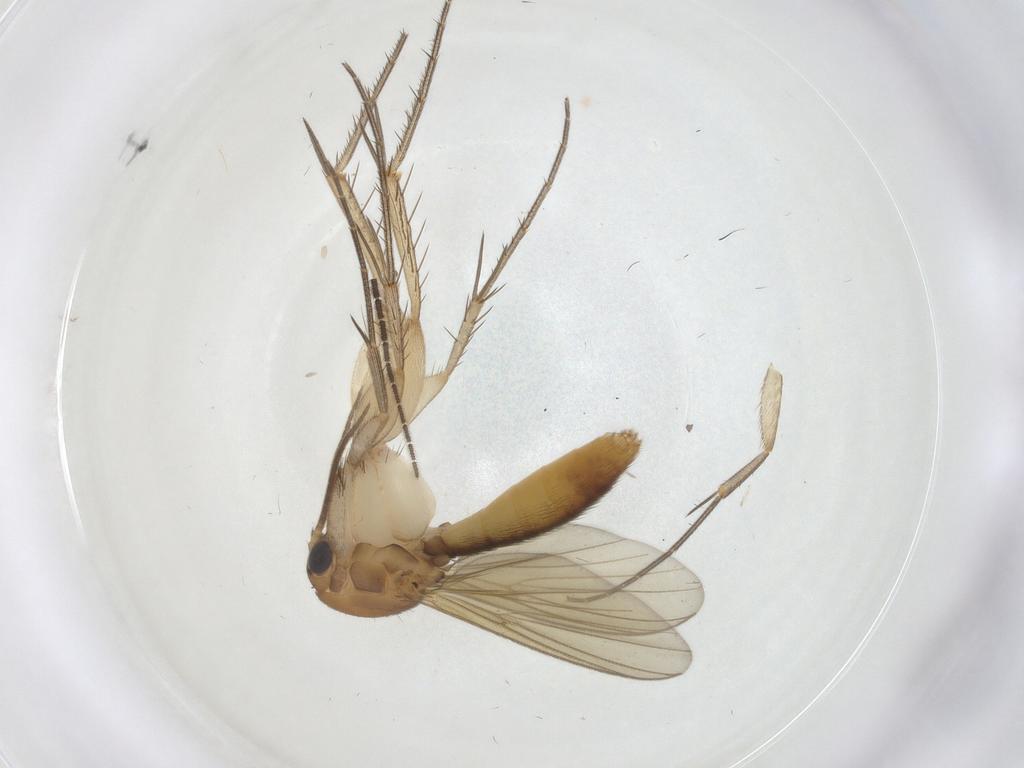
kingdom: Animalia
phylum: Arthropoda
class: Insecta
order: Diptera
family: Mycetophilidae
